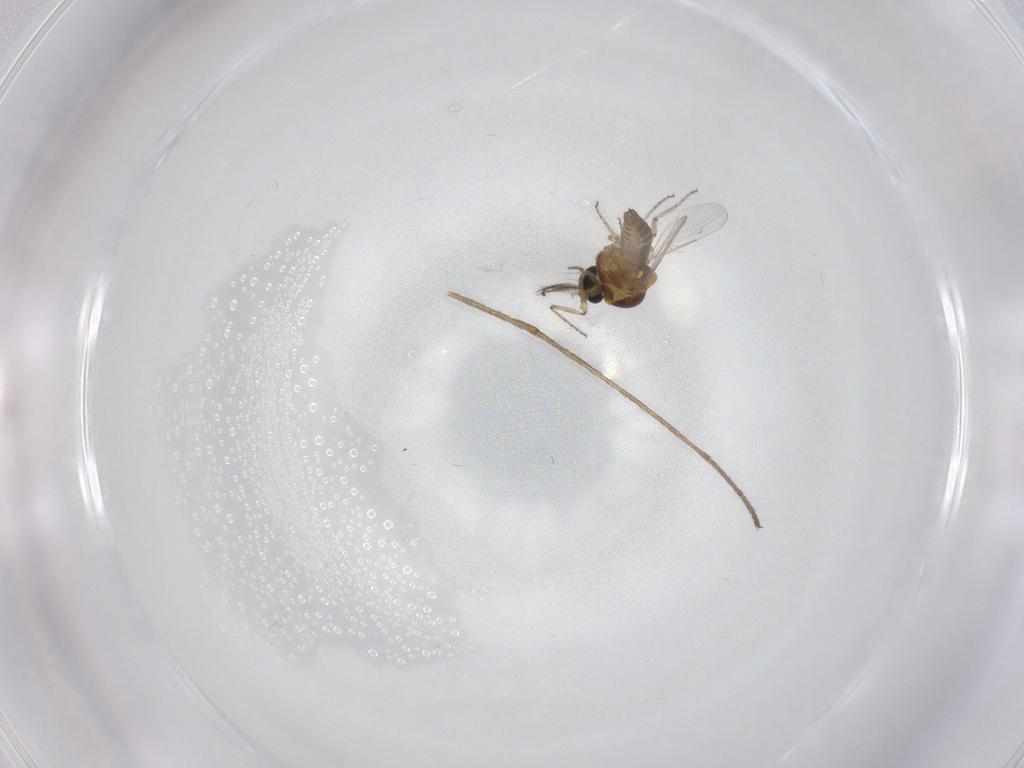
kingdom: Animalia
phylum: Arthropoda
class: Insecta
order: Diptera
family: Ceratopogonidae
